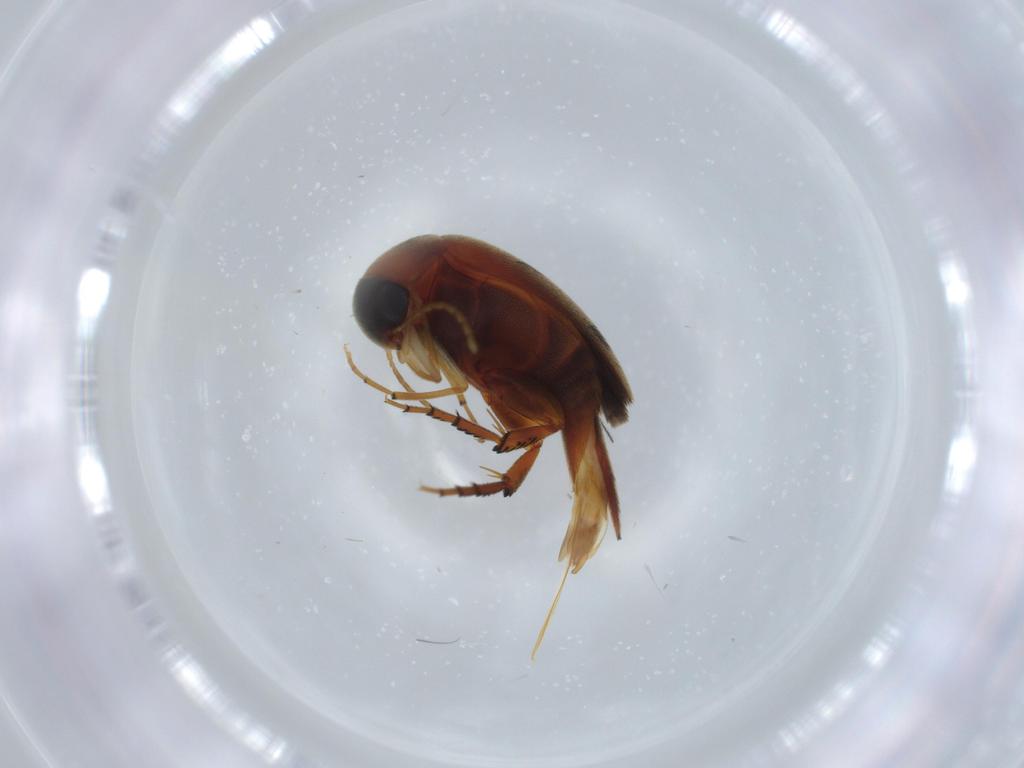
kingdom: Animalia
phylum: Arthropoda
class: Insecta
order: Coleoptera
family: Mordellidae
